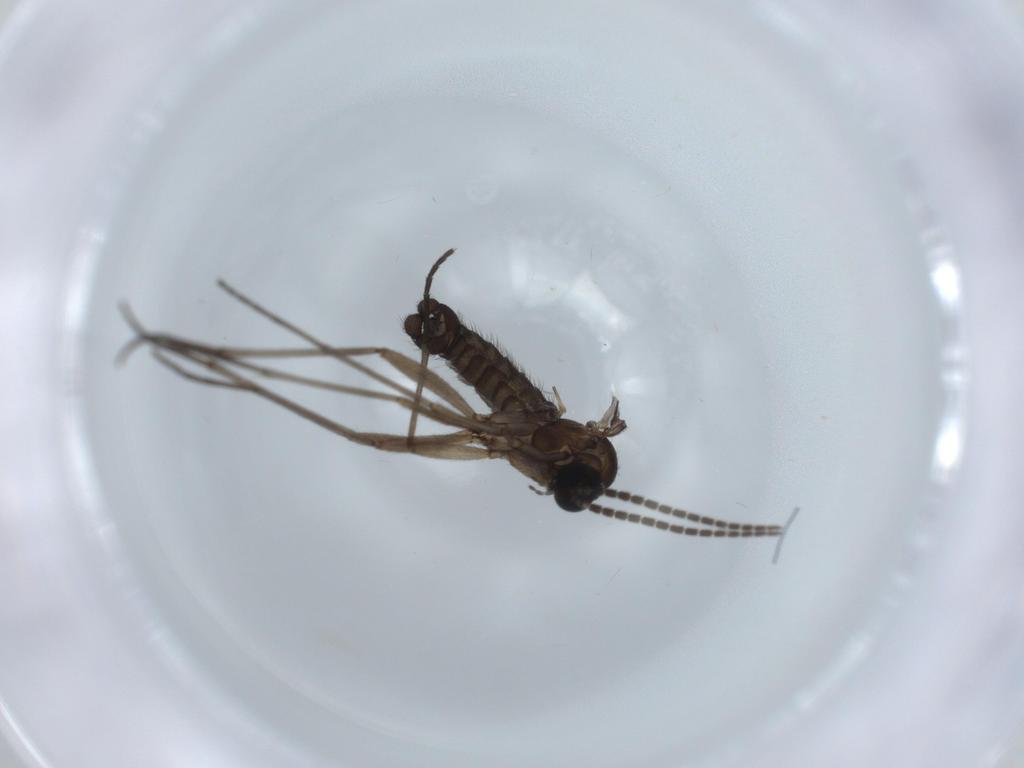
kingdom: Animalia
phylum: Arthropoda
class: Insecta
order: Diptera
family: Sciaridae
